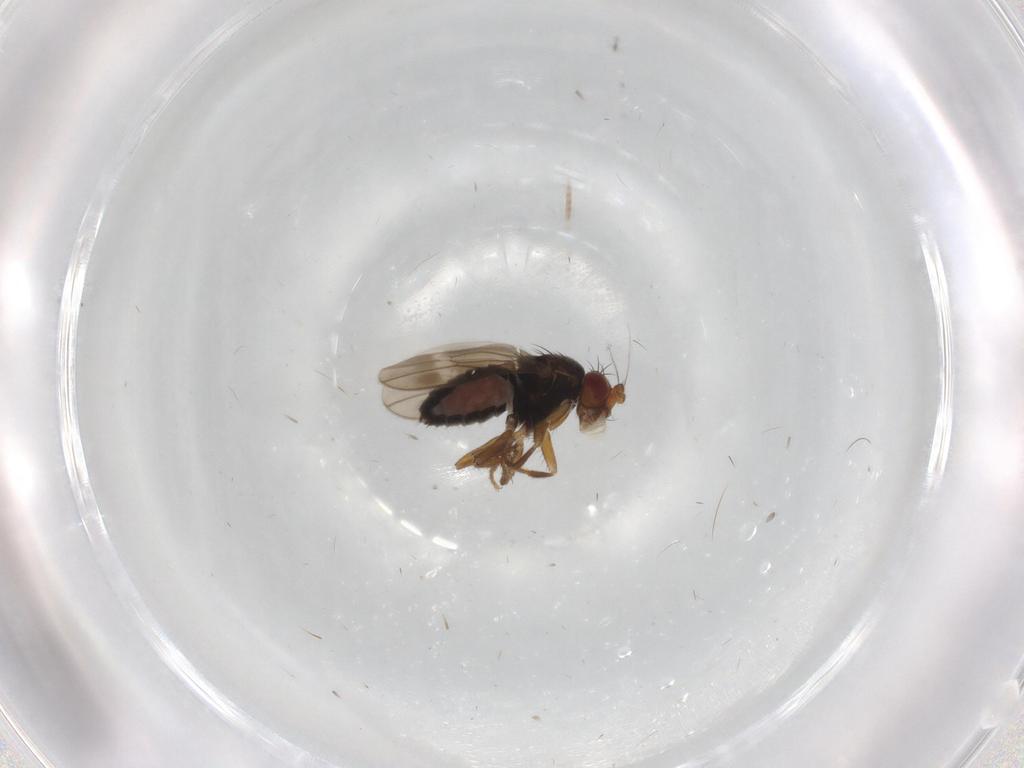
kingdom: Animalia
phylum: Arthropoda
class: Insecta
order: Diptera
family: Sphaeroceridae
